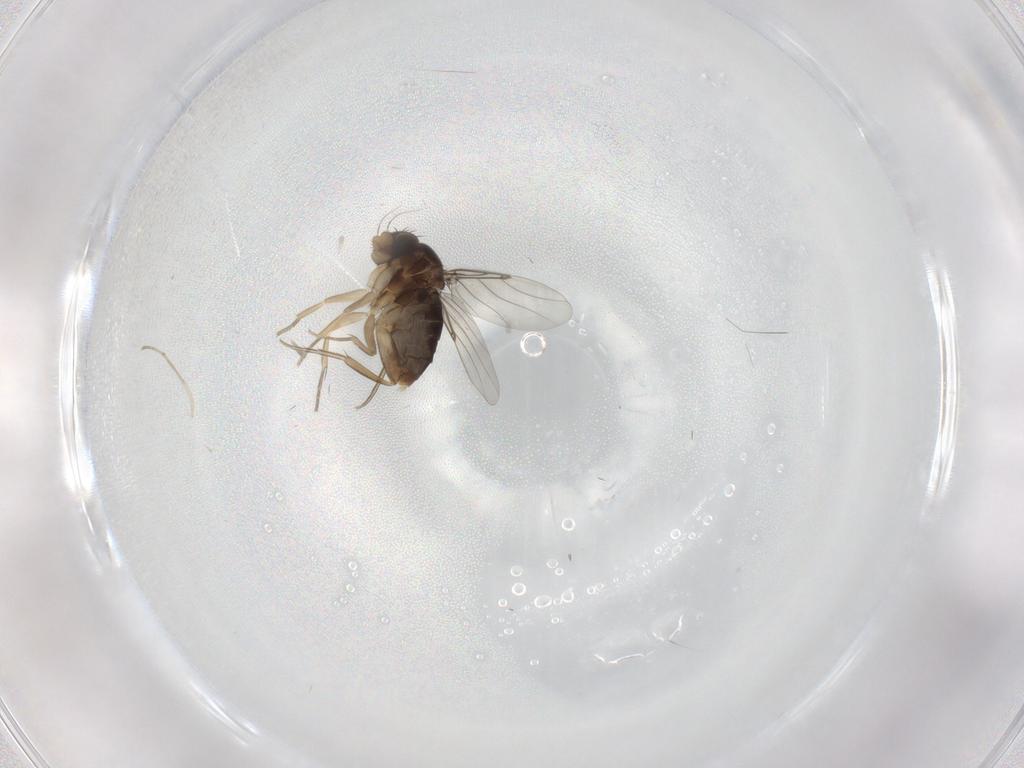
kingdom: Animalia
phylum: Arthropoda
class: Insecta
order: Diptera
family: Phoridae
